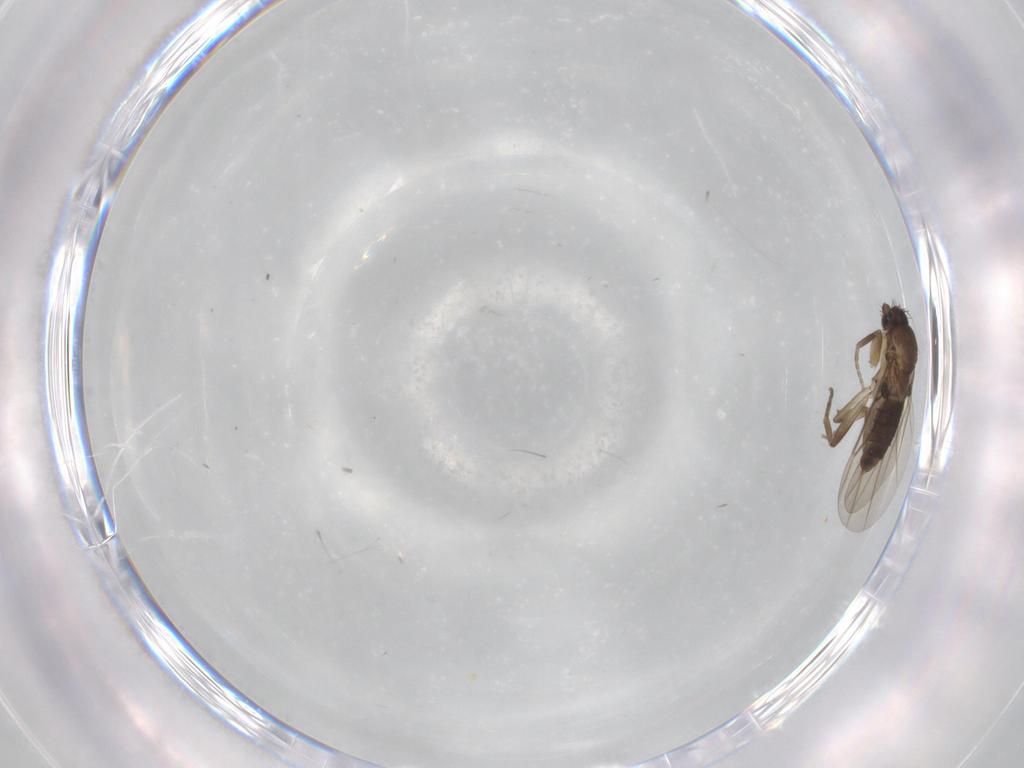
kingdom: Animalia
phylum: Arthropoda
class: Insecta
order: Diptera
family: Phoridae
